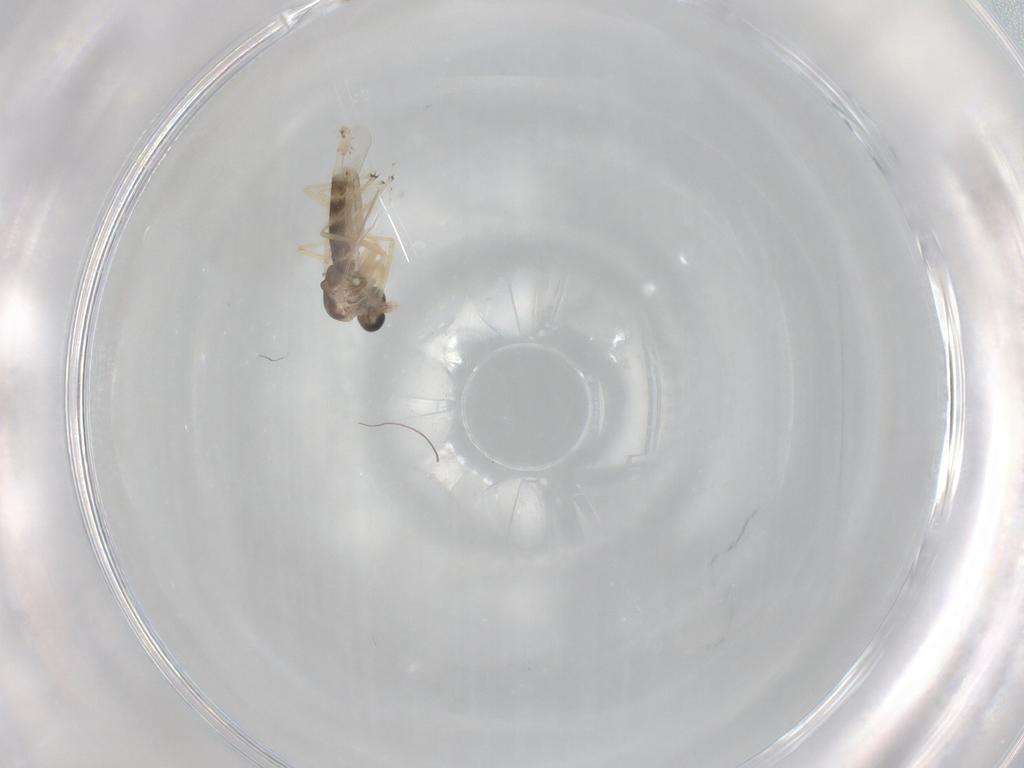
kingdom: Animalia
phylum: Arthropoda
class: Insecta
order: Diptera
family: Chironomidae
